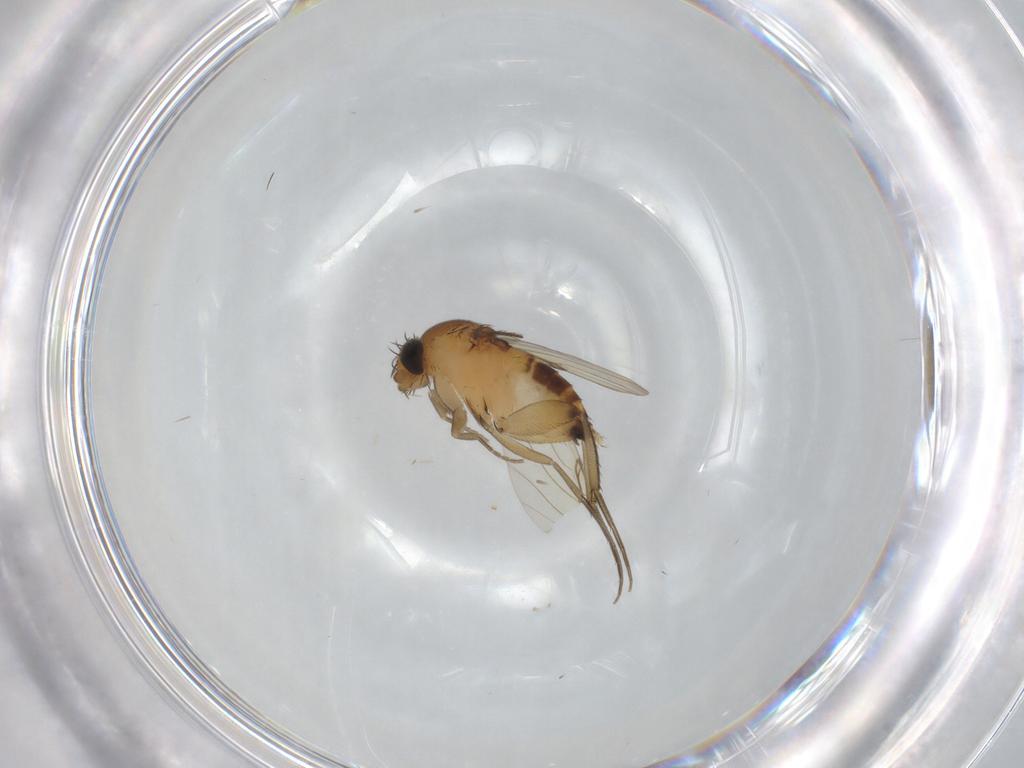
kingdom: Animalia
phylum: Arthropoda
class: Insecta
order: Diptera
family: Phoridae
